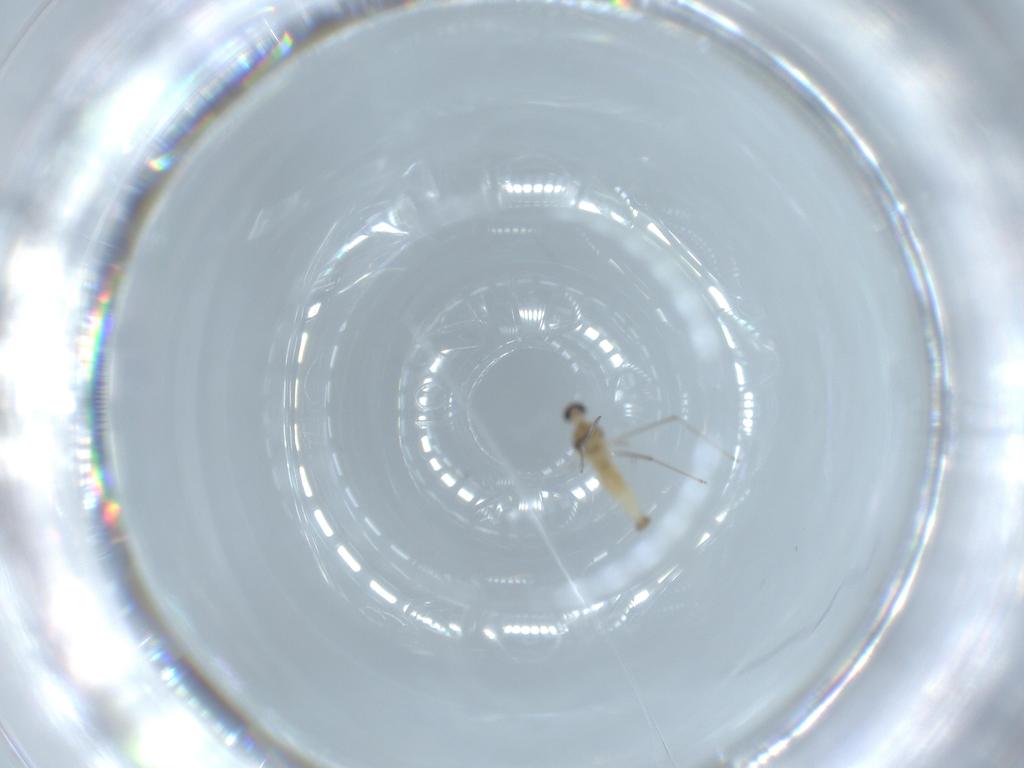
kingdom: Animalia
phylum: Arthropoda
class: Insecta
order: Diptera
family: Cecidomyiidae
